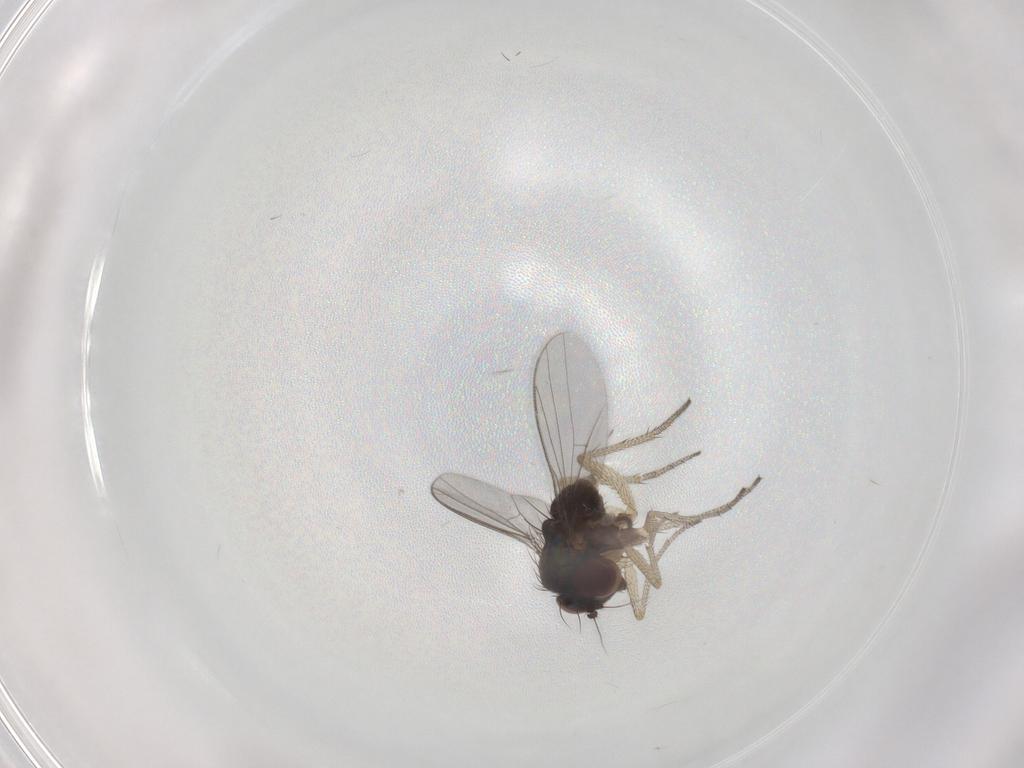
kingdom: Animalia
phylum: Arthropoda
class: Insecta
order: Diptera
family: Dolichopodidae
